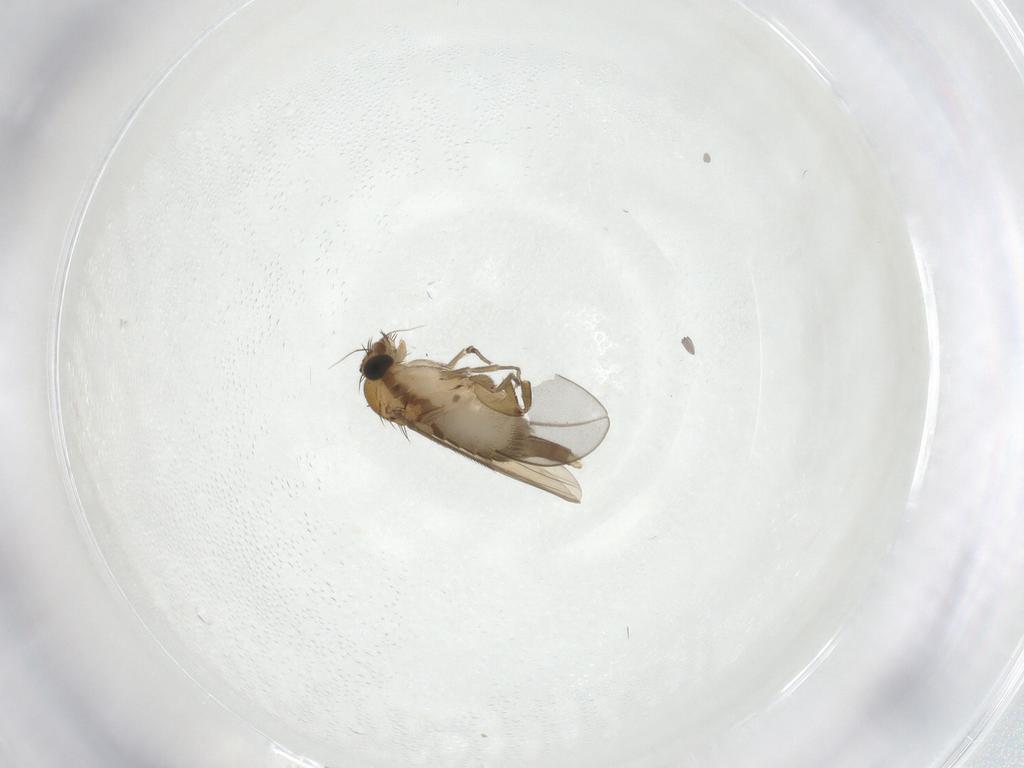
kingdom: Animalia
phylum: Arthropoda
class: Insecta
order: Diptera
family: Phoridae
